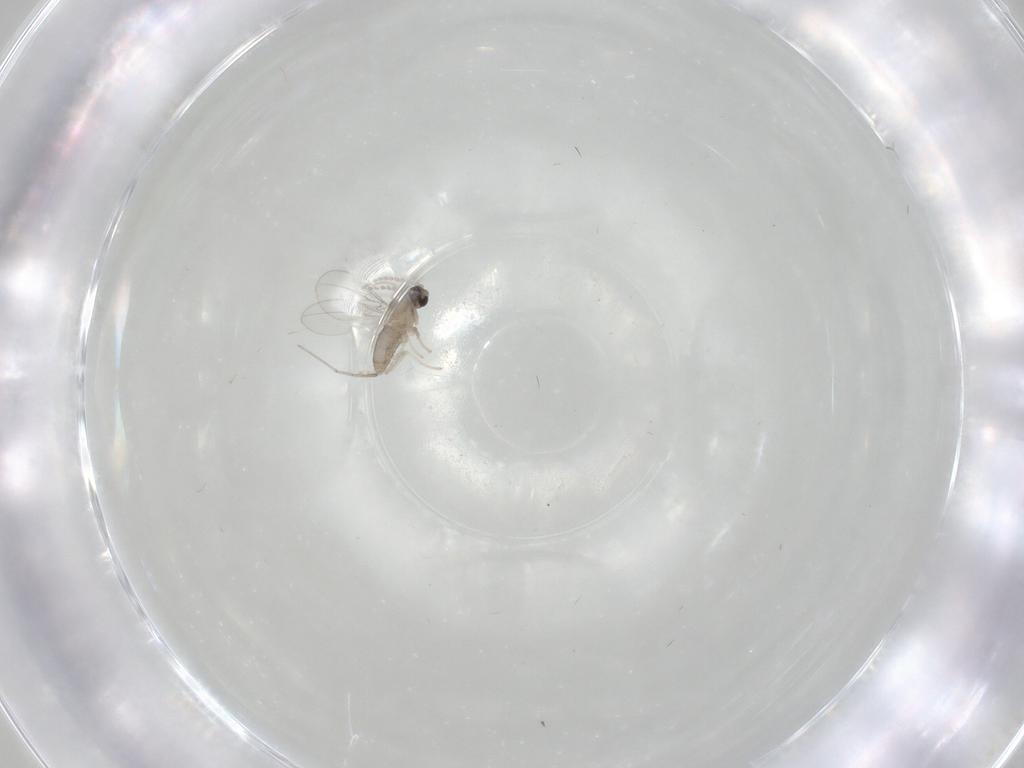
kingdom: Animalia
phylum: Arthropoda
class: Insecta
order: Diptera
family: Cecidomyiidae
